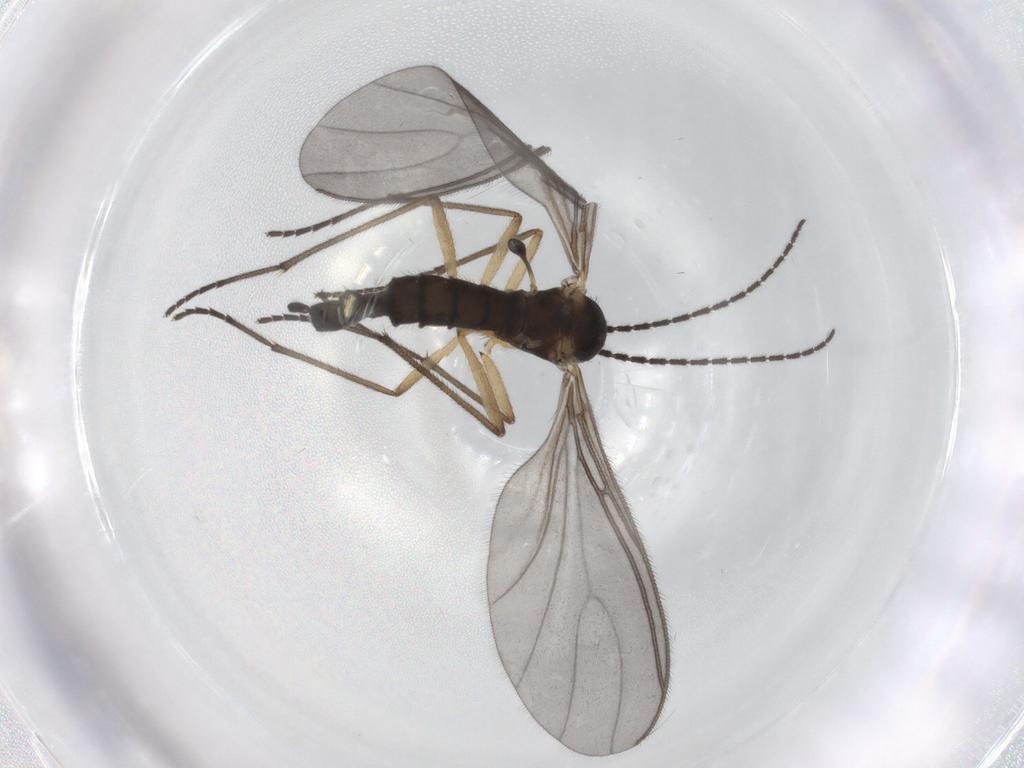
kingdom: Animalia
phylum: Arthropoda
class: Insecta
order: Diptera
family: Sciaridae
